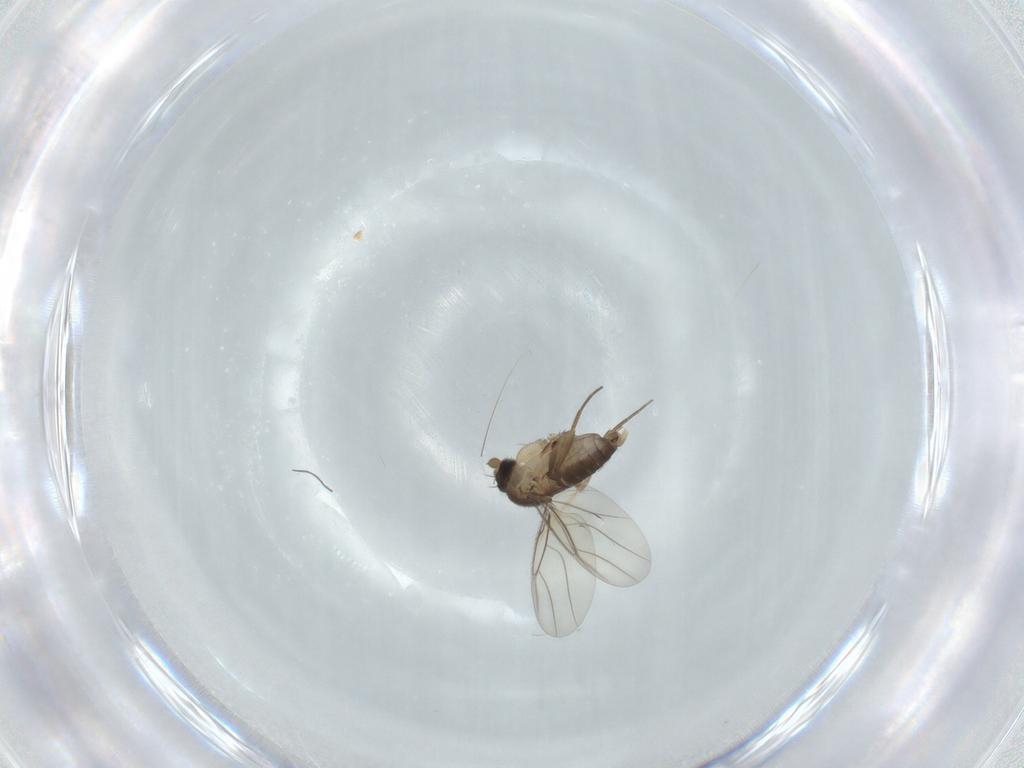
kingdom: Animalia
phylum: Arthropoda
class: Insecta
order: Diptera
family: Chironomidae
